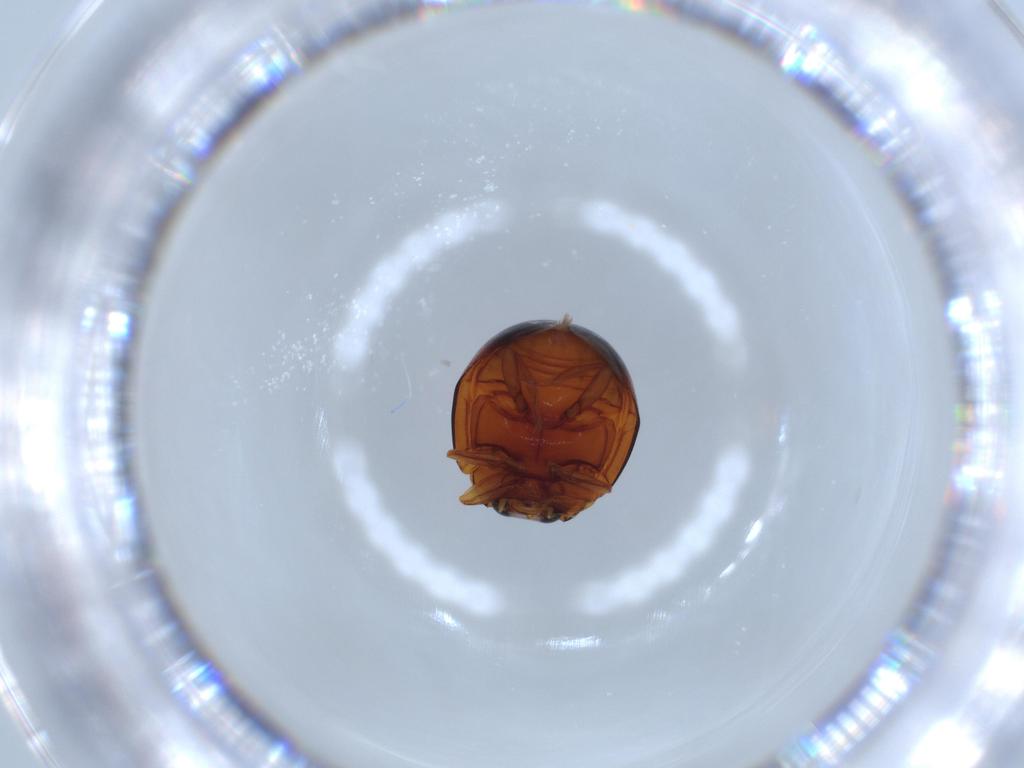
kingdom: Animalia
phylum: Arthropoda
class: Insecta
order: Coleoptera
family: Coccinellidae
